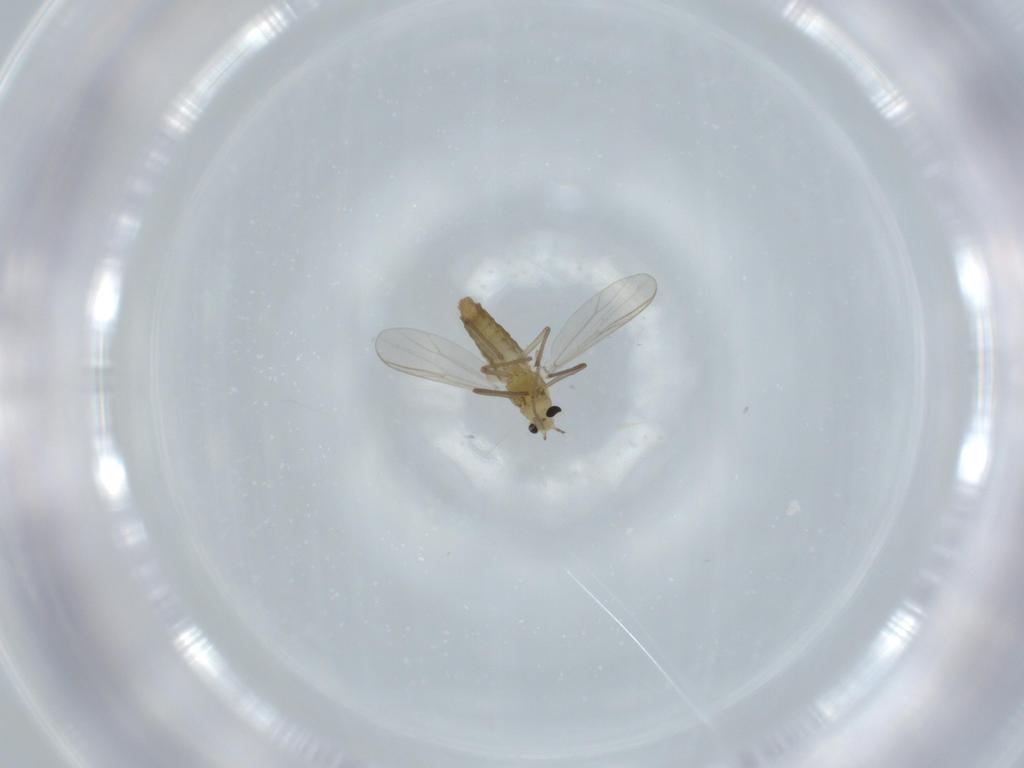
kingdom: Animalia
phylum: Arthropoda
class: Insecta
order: Diptera
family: Chironomidae
